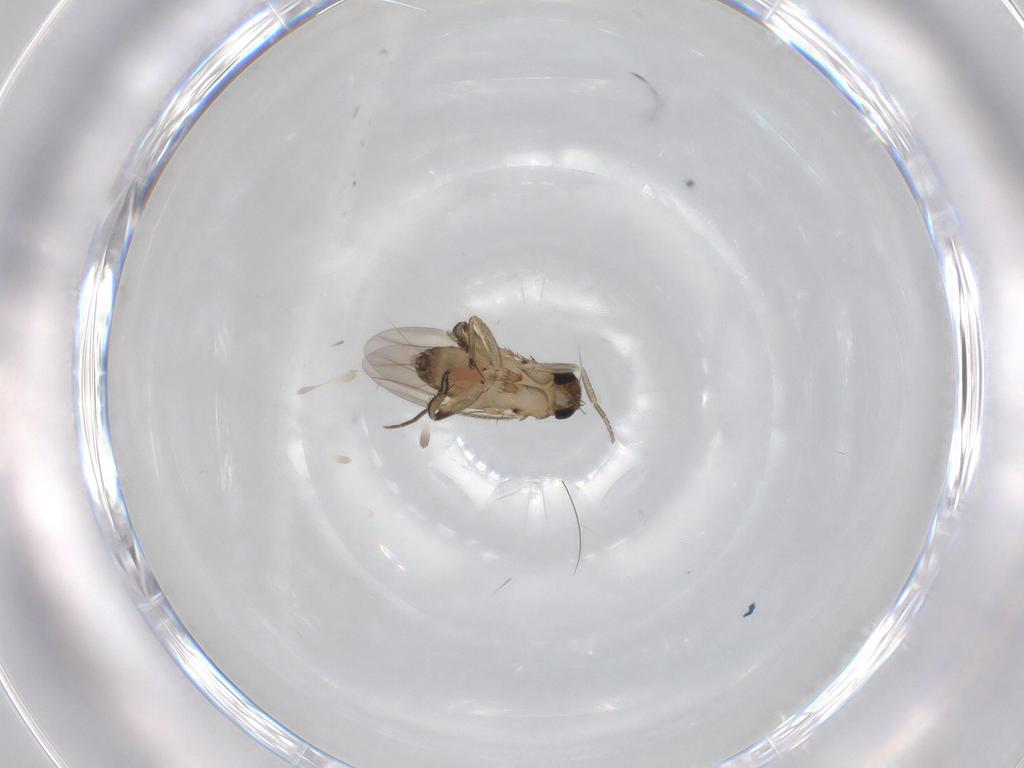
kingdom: Animalia
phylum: Arthropoda
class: Insecta
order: Diptera
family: Phoridae
